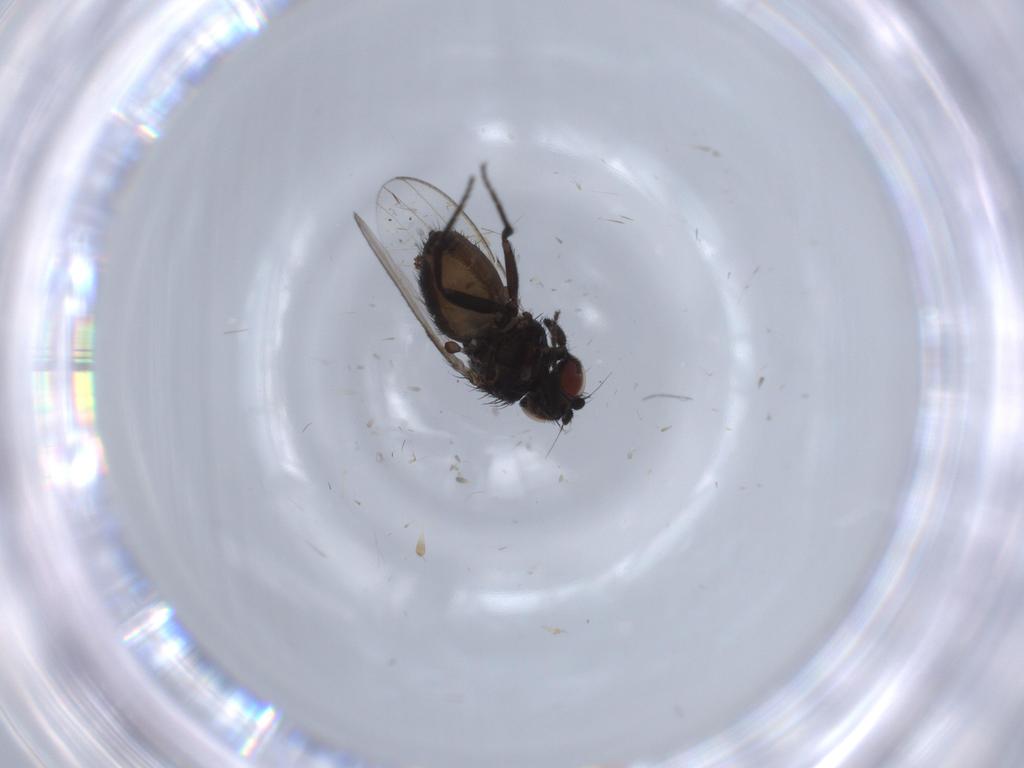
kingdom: Animalia
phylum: Arthropoda
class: Insecta
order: Diptera
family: Milichiidae
